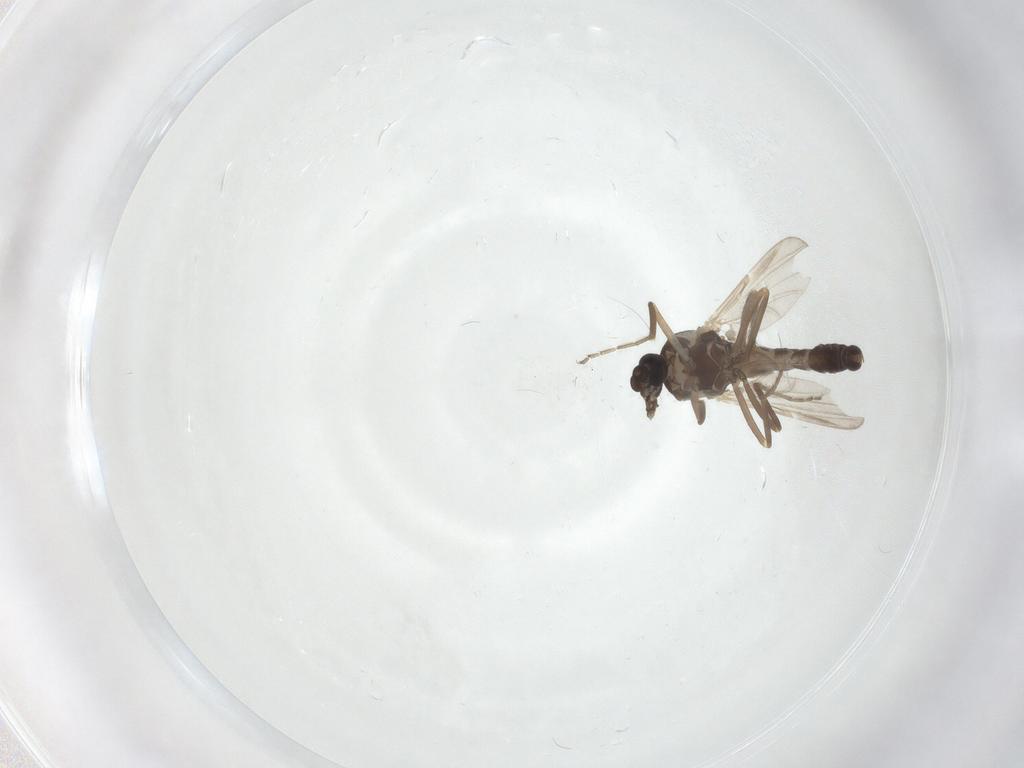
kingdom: Animalia
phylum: Arthropoda
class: Insecta
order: Diptera
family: Ceratopogonidae
